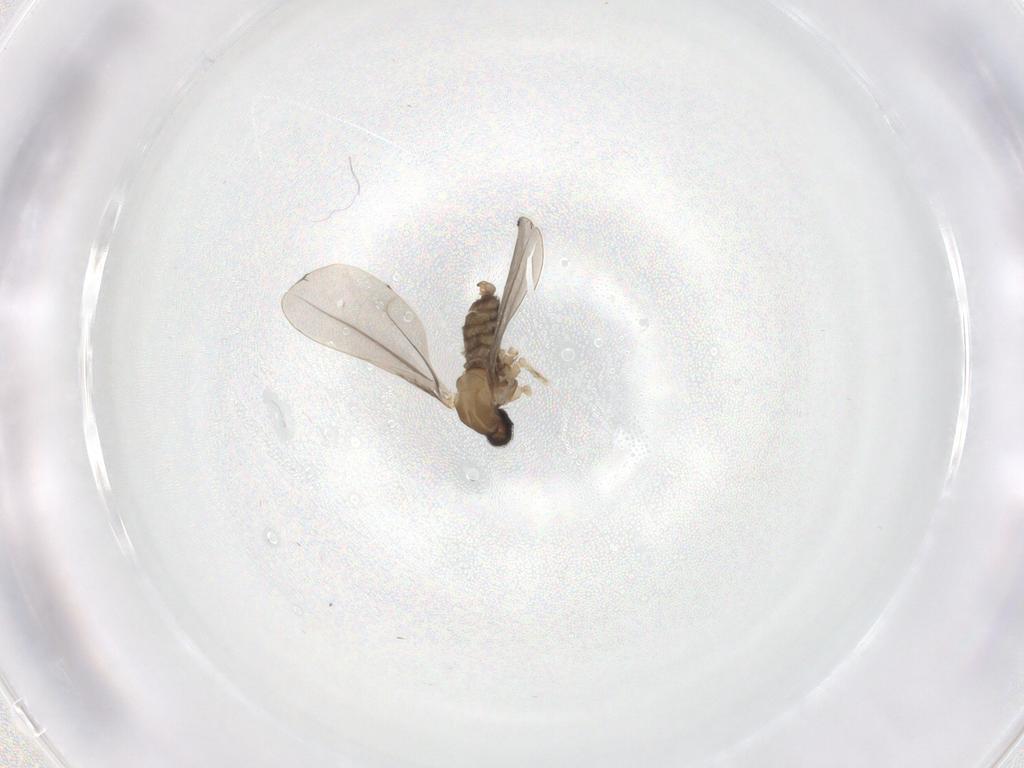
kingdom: Animalia
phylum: Arthropoda
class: Insecta
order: Diptera
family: Cecidomyiidae
